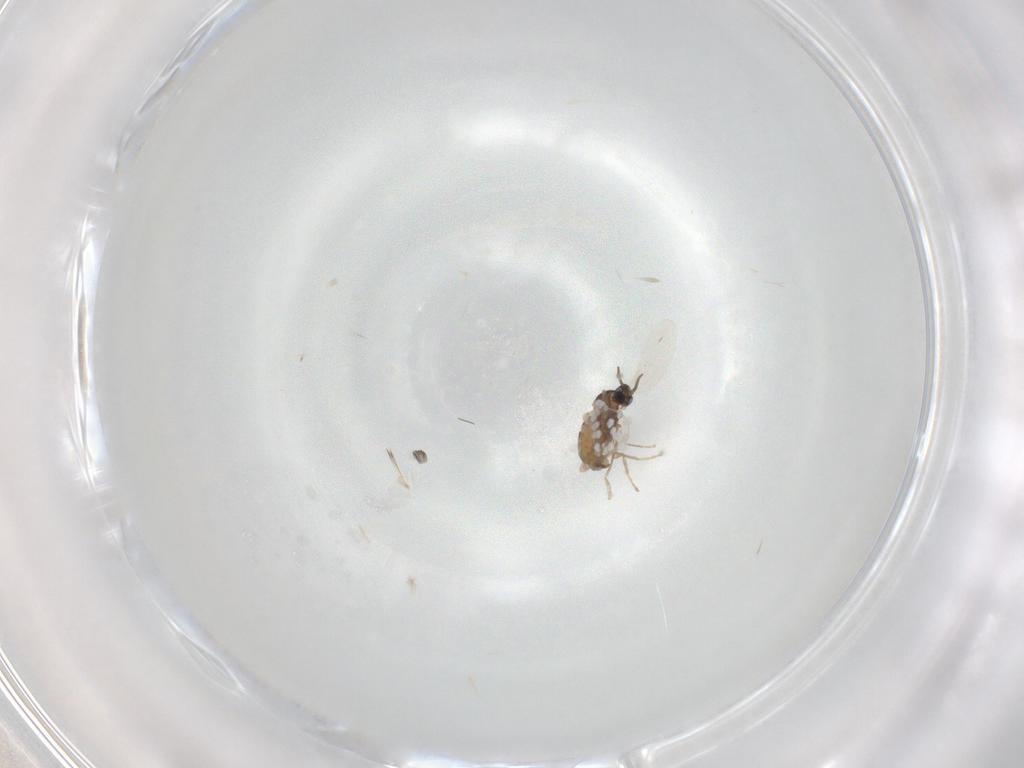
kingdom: Animalia
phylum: Arthropoda
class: Insecta
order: Diptera
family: Cecidomyiidae
